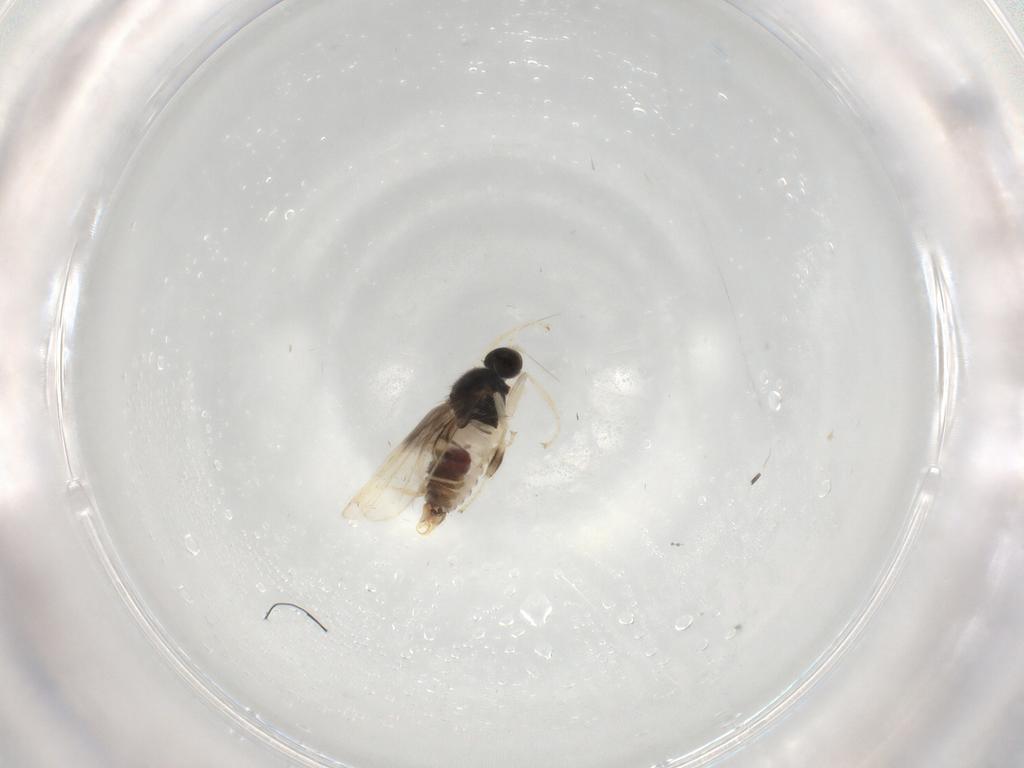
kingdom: Animalia
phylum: Arthropoda
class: Insecta
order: Diptera
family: Hybotidae
